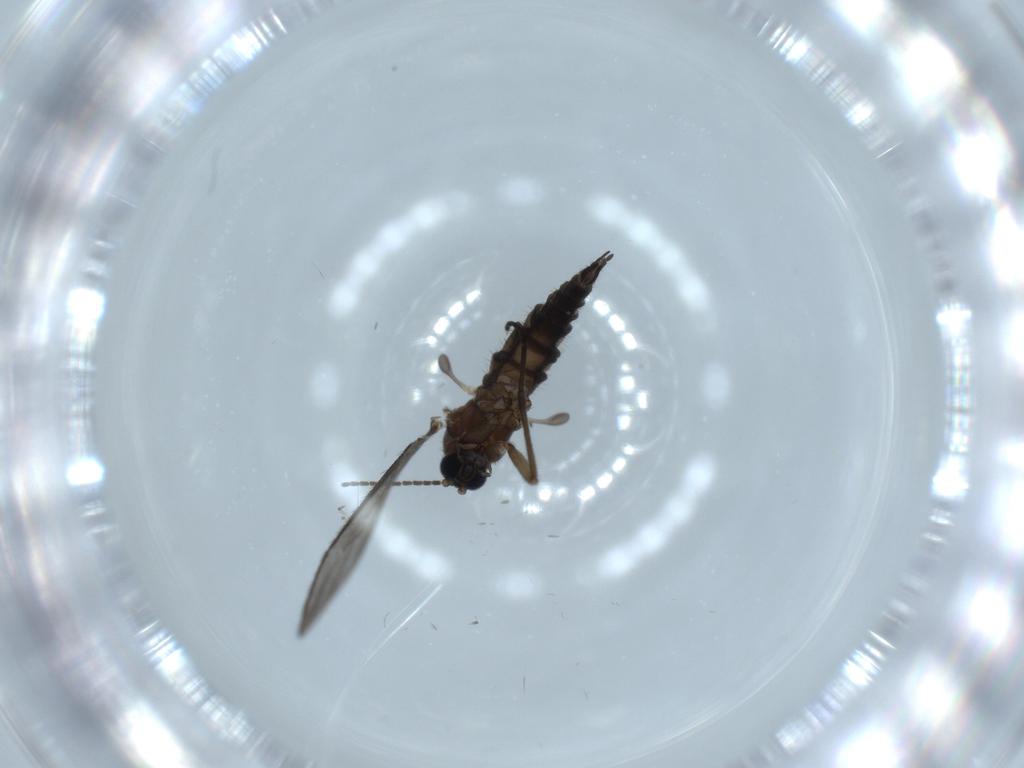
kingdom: Animalia
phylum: Arthropoda
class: Insecta
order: Diptera
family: Sciaridae
